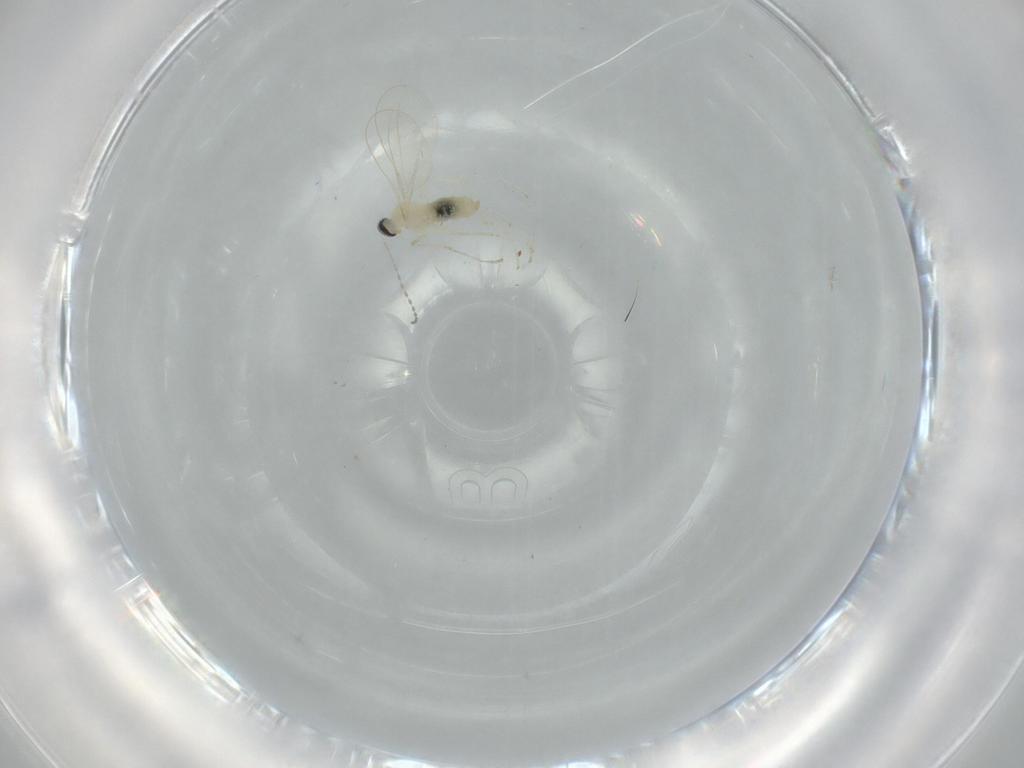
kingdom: Animalia
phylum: Arthropoda
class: Insecta
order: Diptera
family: Cecidomyiidae
